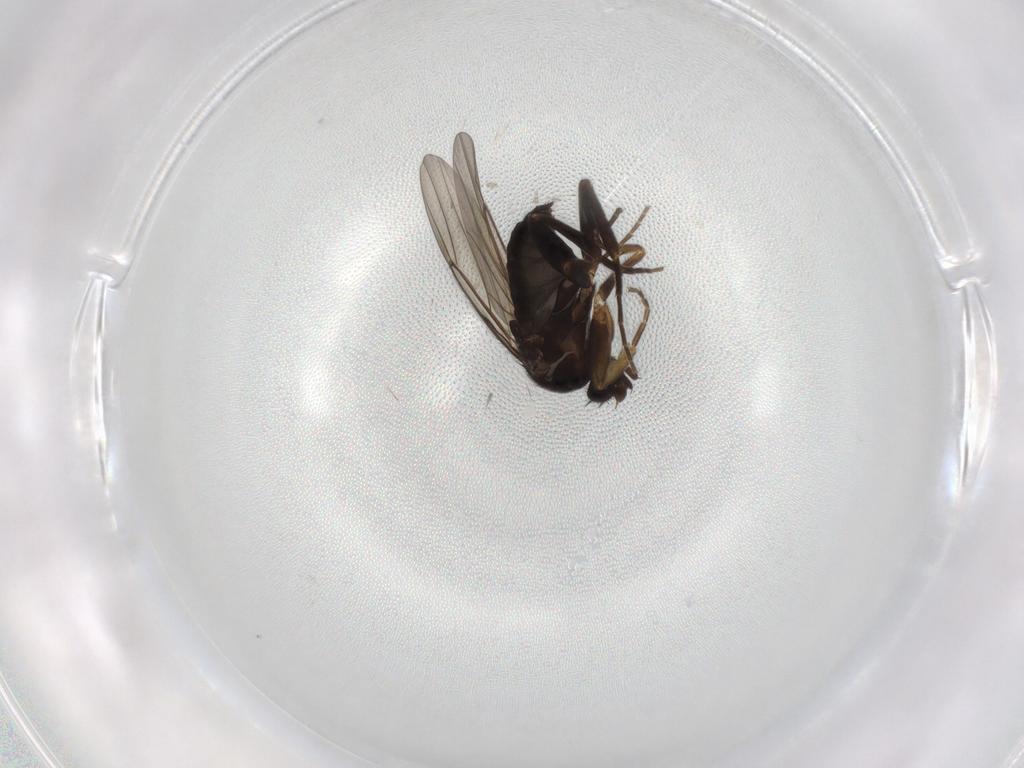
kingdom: Animalia
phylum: Arthropoda
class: Insecta
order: Diptera
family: Phoridae
